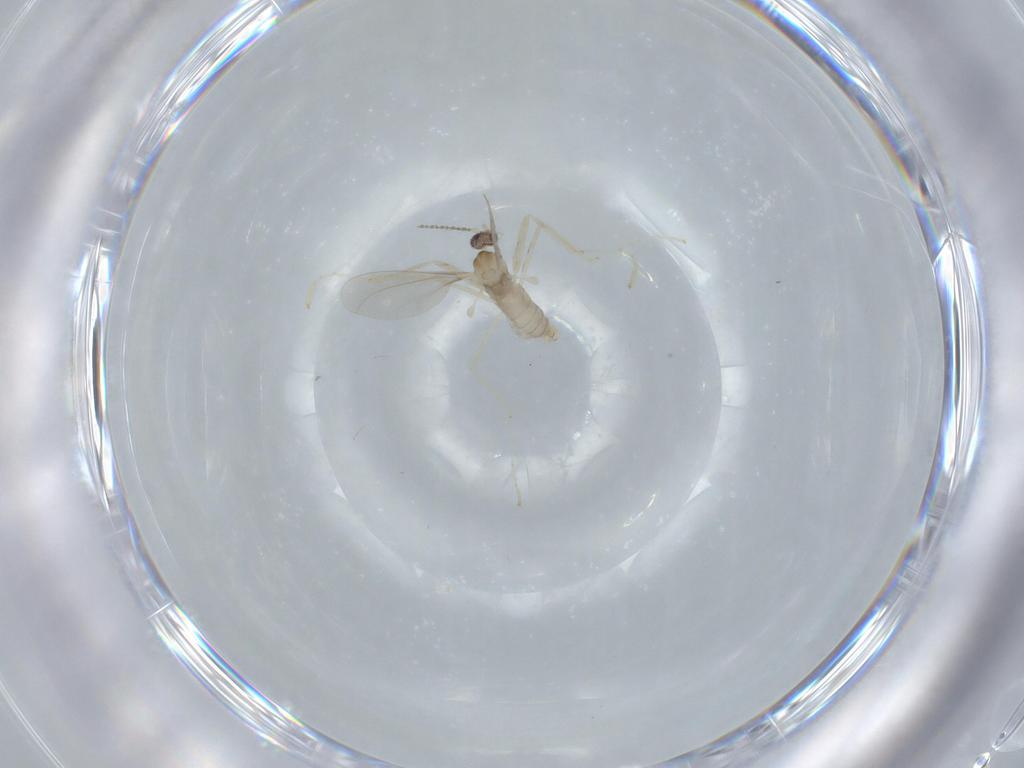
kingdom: Animalia
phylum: Arthropoda
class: Insecta
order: Diptera
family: Cecidomyiidae
